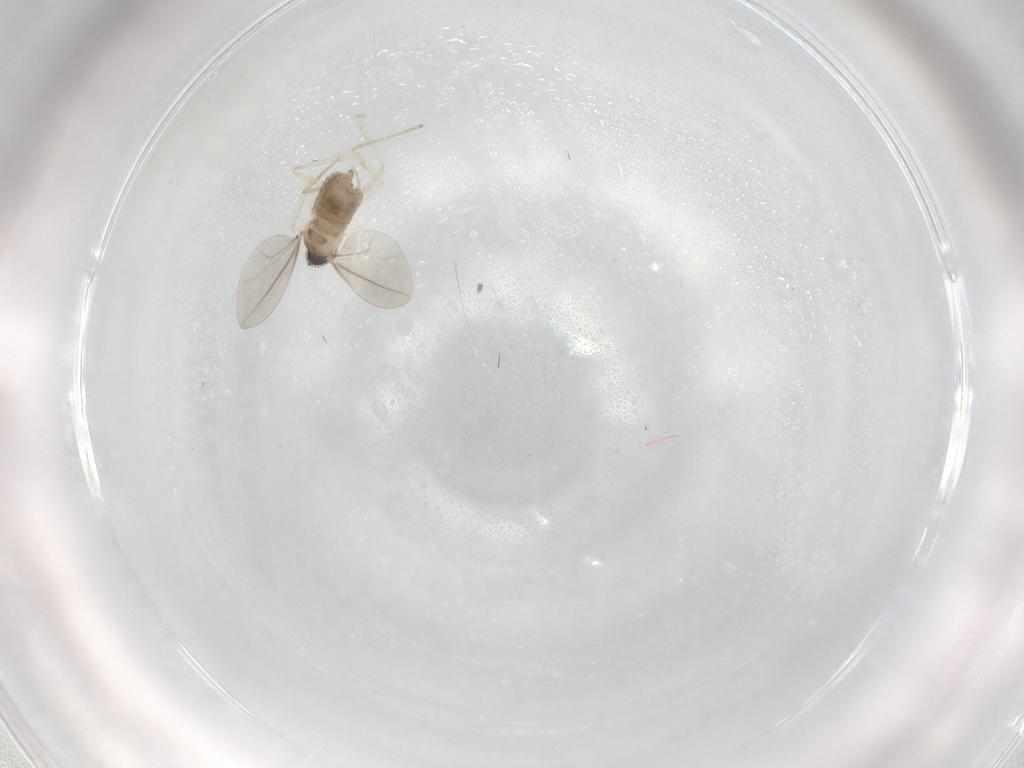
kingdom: Animalia
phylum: Arthropoda
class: Insecta
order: Diptera
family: Cecidomyiidae
